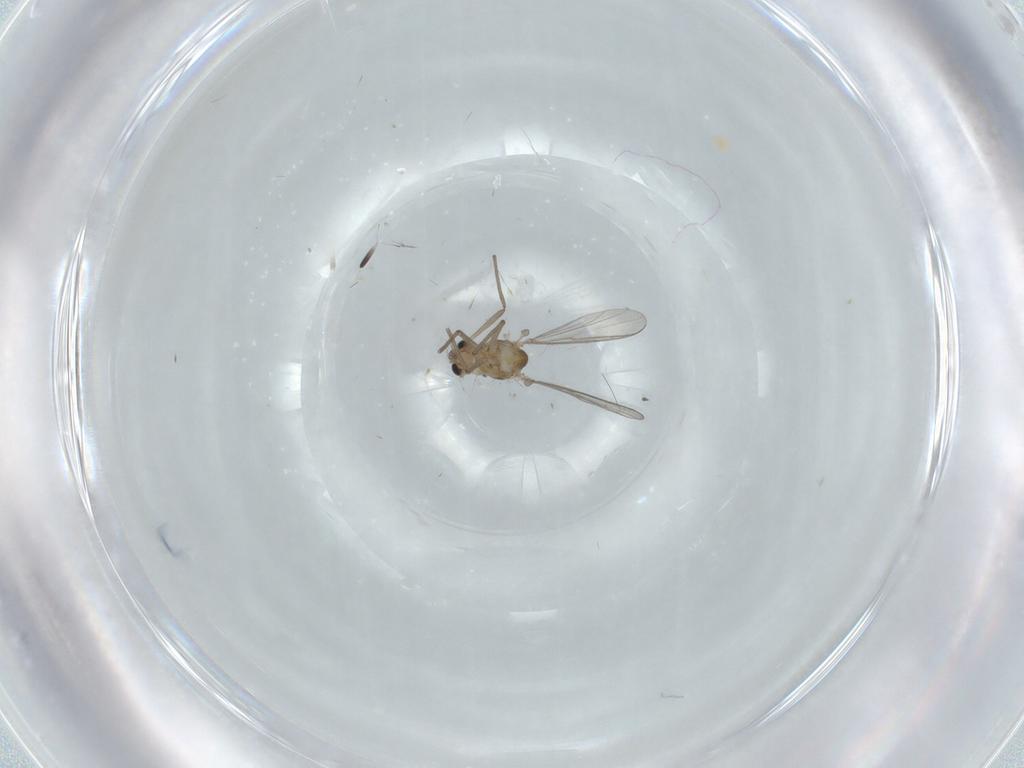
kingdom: Animalia
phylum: Arthropoda
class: Insecta
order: Diptera
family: Chironomidae
